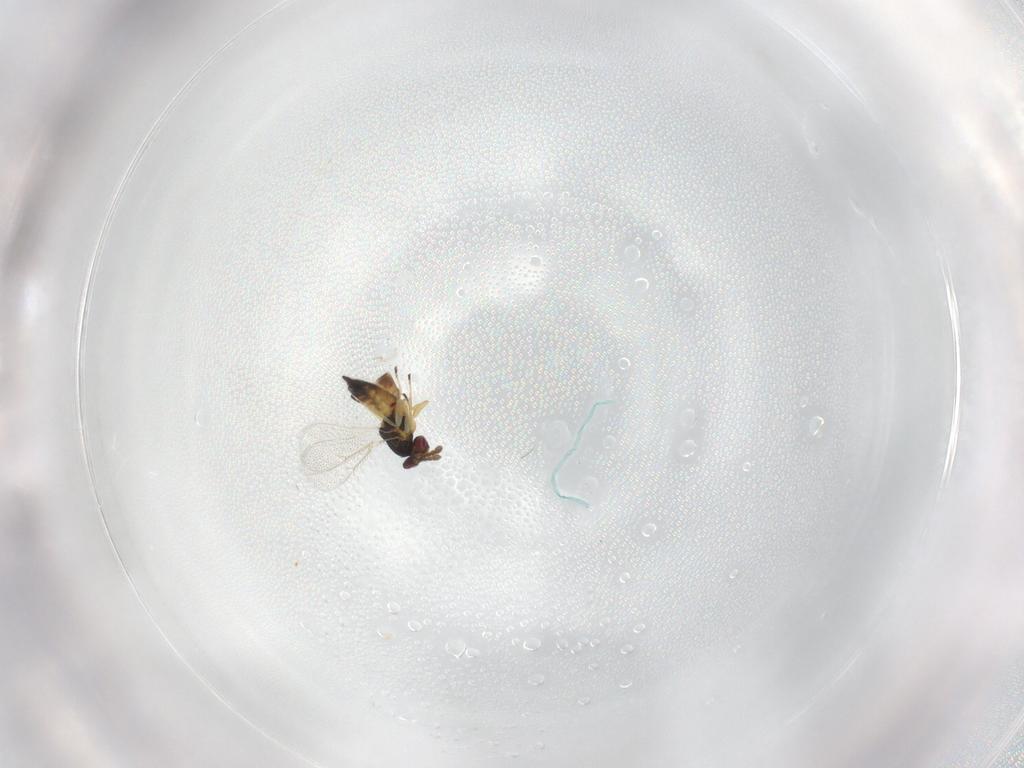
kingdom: Animalia
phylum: Arthropoda
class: Insecta
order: Hymenoptera
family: Eulophidae
